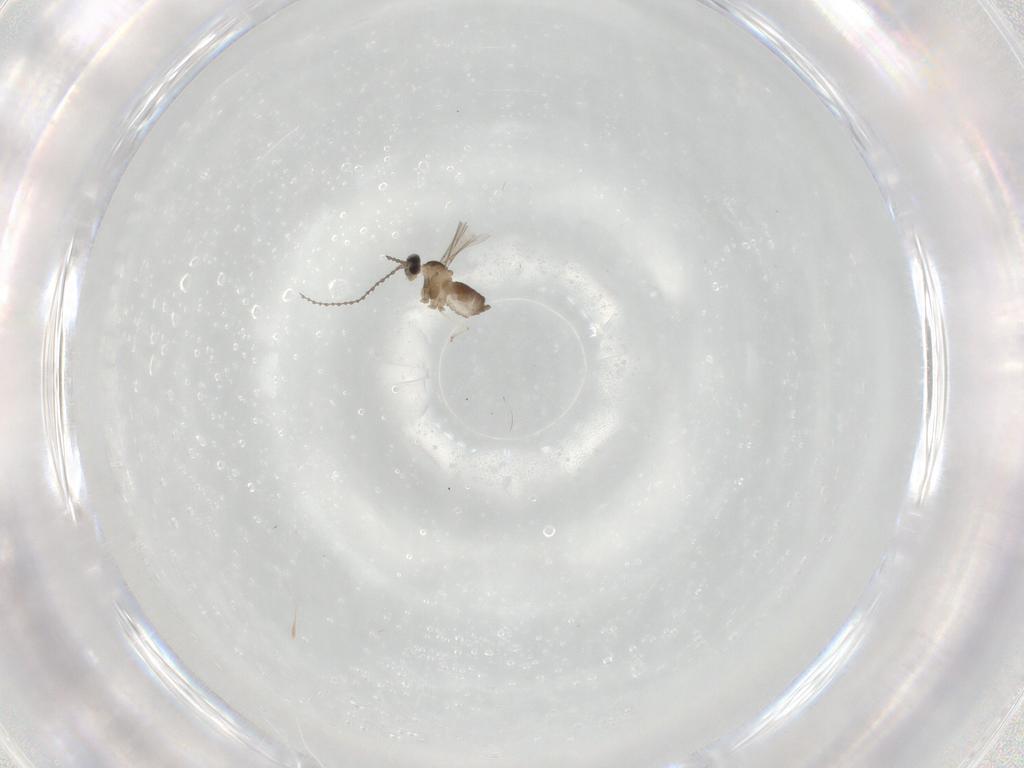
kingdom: Animalia
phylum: Arthropoda
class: Insecta
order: Diptera
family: Cecidomyiidae
